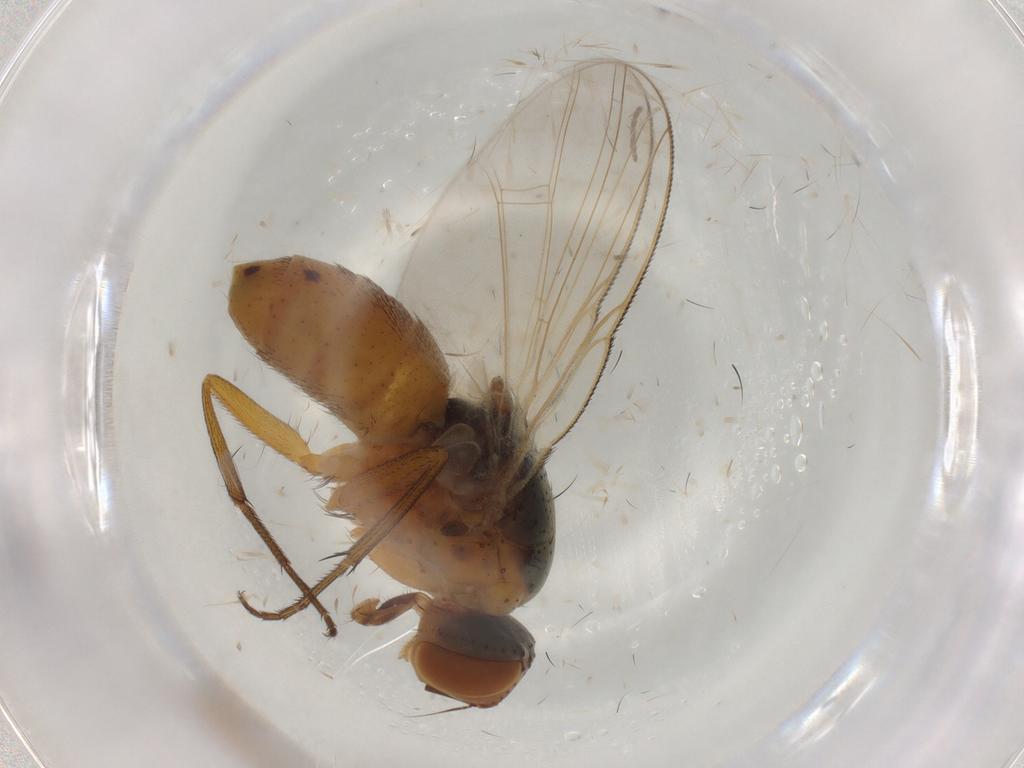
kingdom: Animalia
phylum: Arthropoda
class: Insecta
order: Diptera
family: Muscidae
